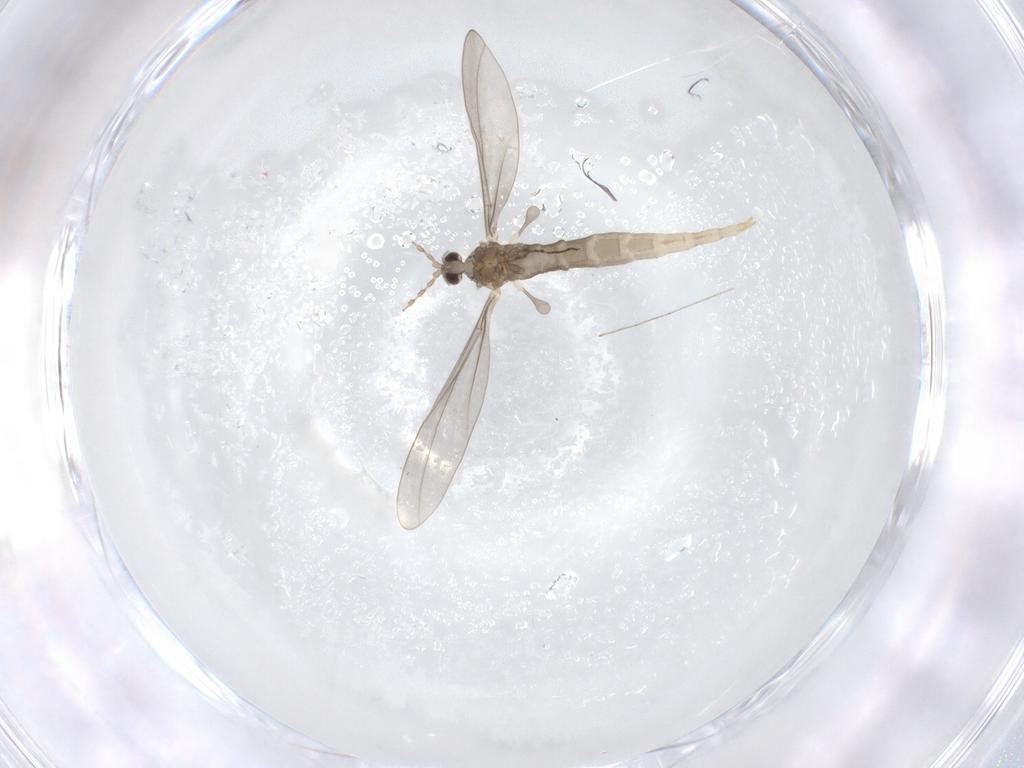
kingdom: Animalia
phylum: Arthropoda
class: Insecta
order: Diptera
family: Cecidomyiidae
